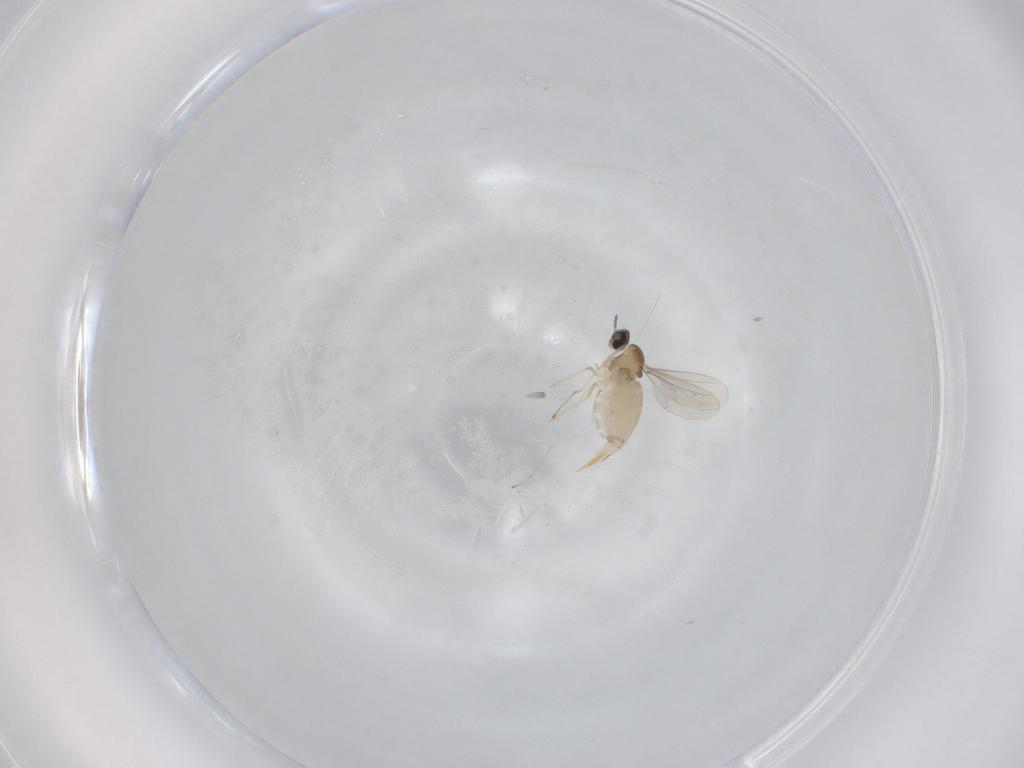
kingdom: Animalia
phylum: Arthropoda
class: Insecta
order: Diptera
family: Cecidomyiidae
